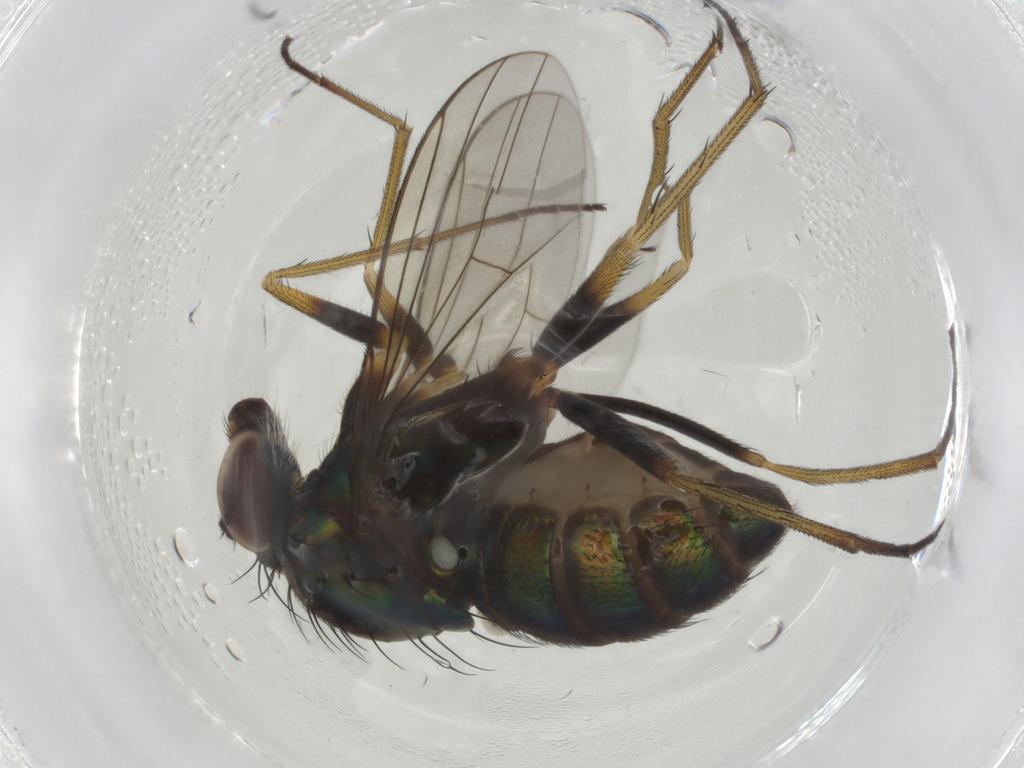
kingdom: Animalia
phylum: Arthropoda
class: Insecta
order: Diptera
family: Dolichopodidae
